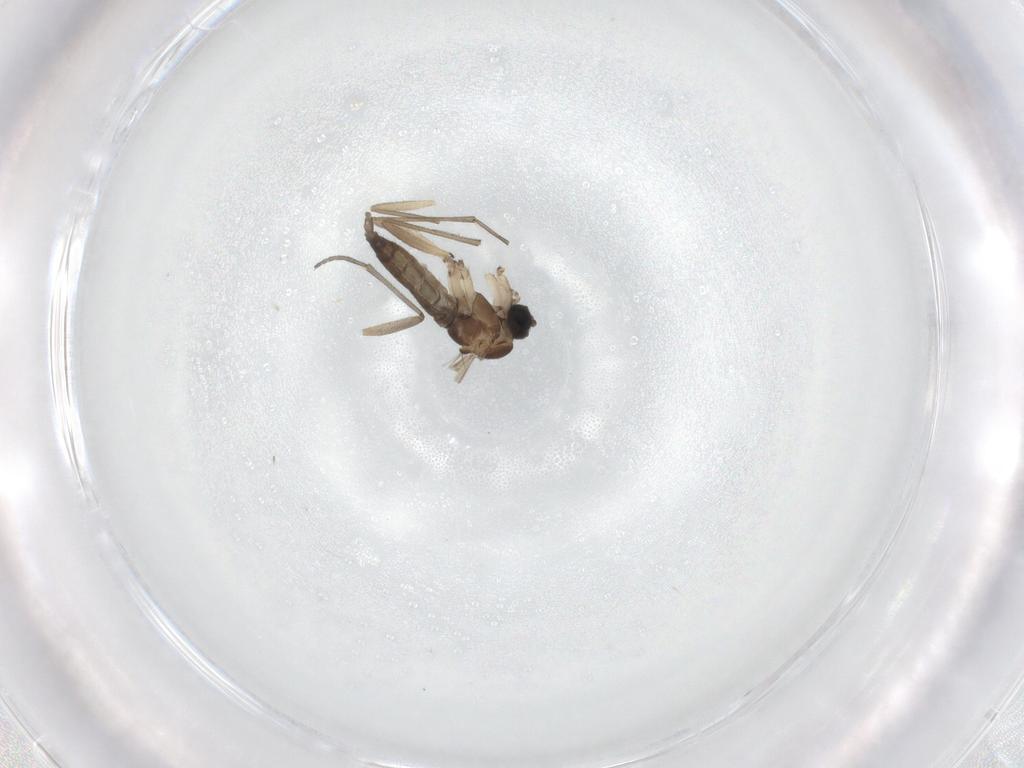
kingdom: Animalia
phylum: Arthropoda
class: Insecta
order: Diptera
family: Sciaridae
